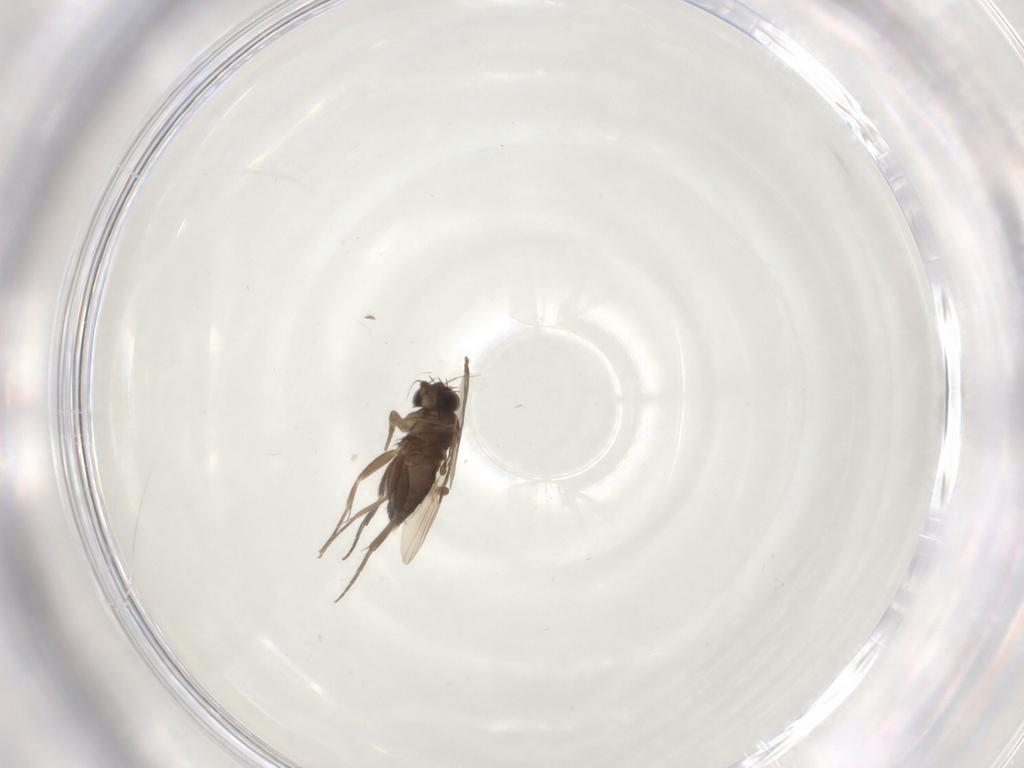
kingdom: Animalia
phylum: Arthropoda
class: Insecta
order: Diptera
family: Phoridae
